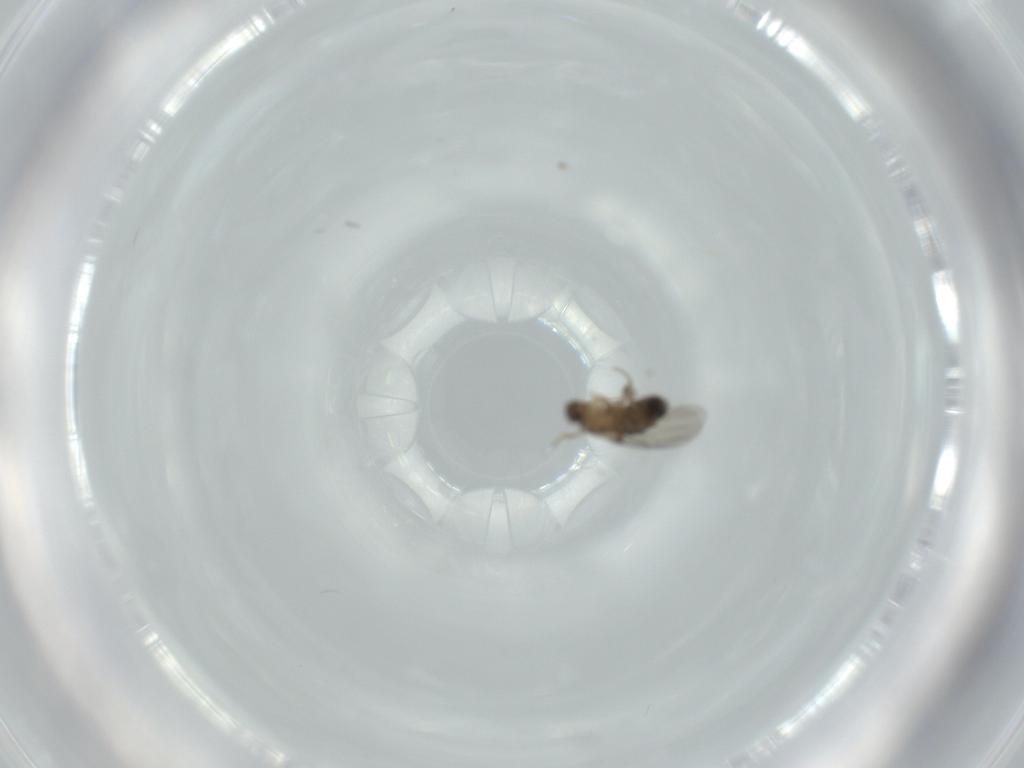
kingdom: Animalia
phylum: Arthropoda
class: Insecta
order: Diptera
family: Phoridae
